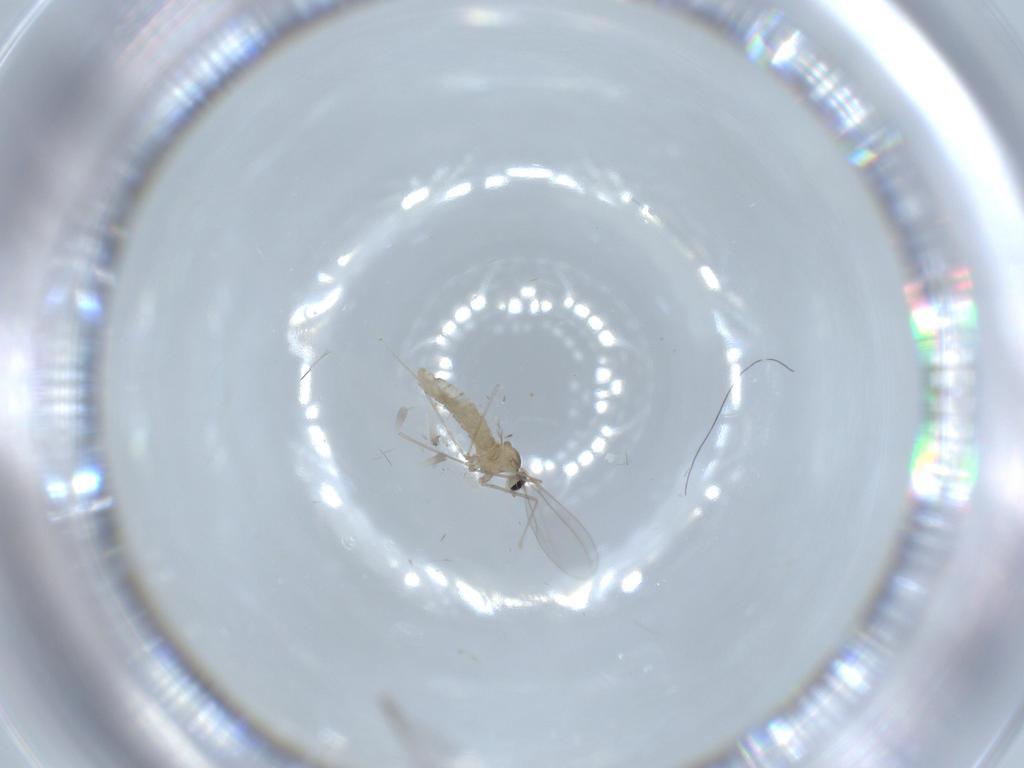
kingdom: Animalia
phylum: Arthropoda
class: Insecta
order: Diptera
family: Cecidomyiidae
